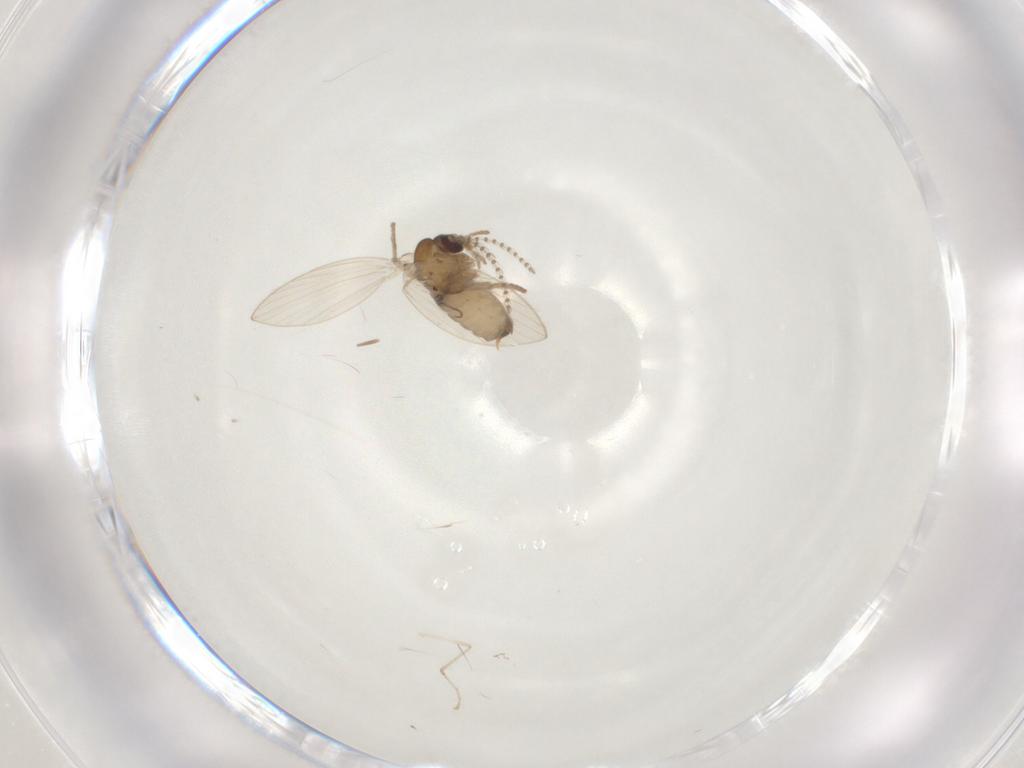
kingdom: Animalia
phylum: Arthropoda
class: Insecta
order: Diptera
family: Psychodidae
